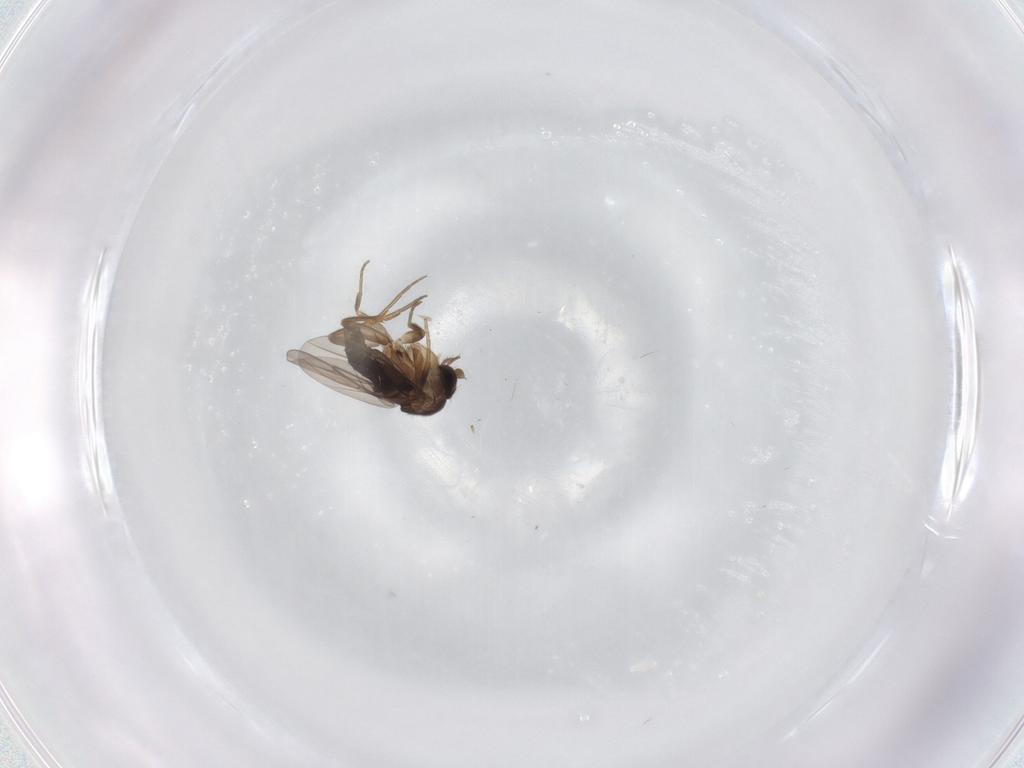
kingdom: Animalia
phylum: Arthropoda
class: Insecta
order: Diptera
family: Phoridae
